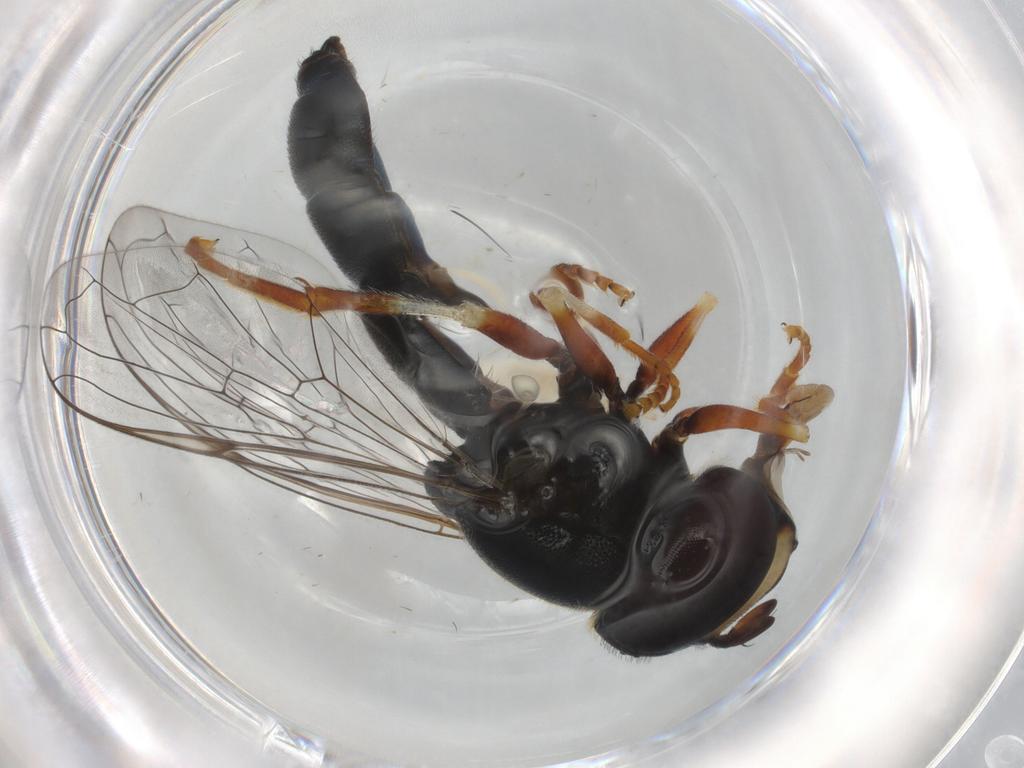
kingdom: Animalia
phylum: Arthropoda
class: Insecta
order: Diptera
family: Syrphidae
